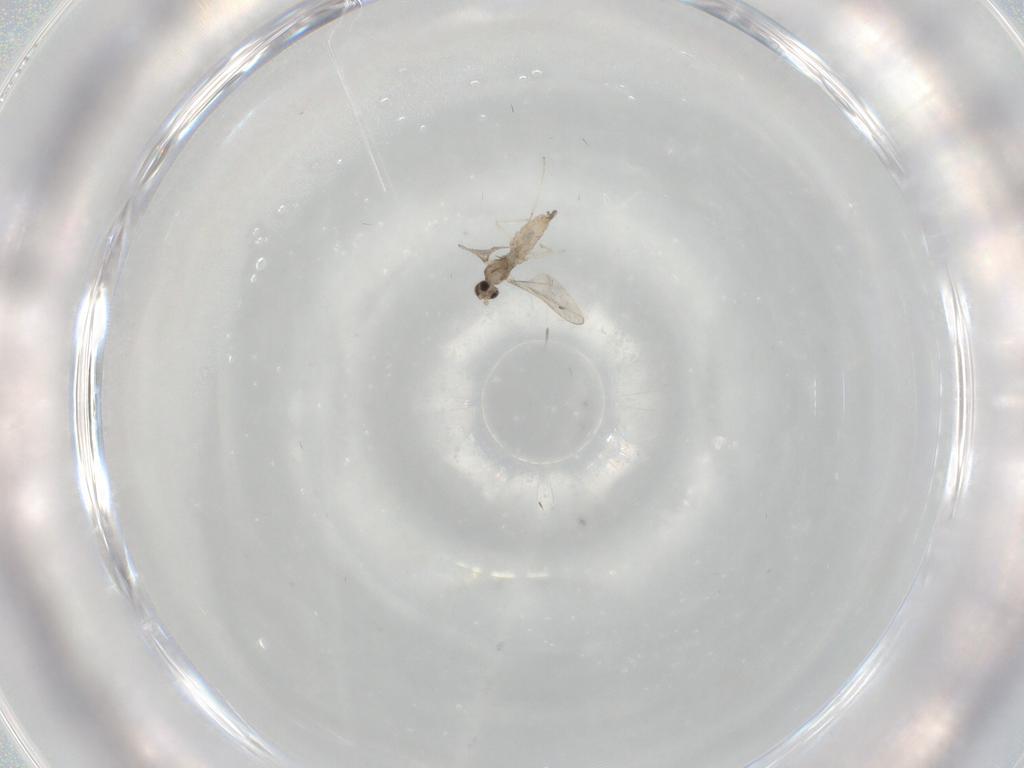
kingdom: Animalia
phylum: Arthropoda
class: Insecta
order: Diptera
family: Cecidomyiidae
